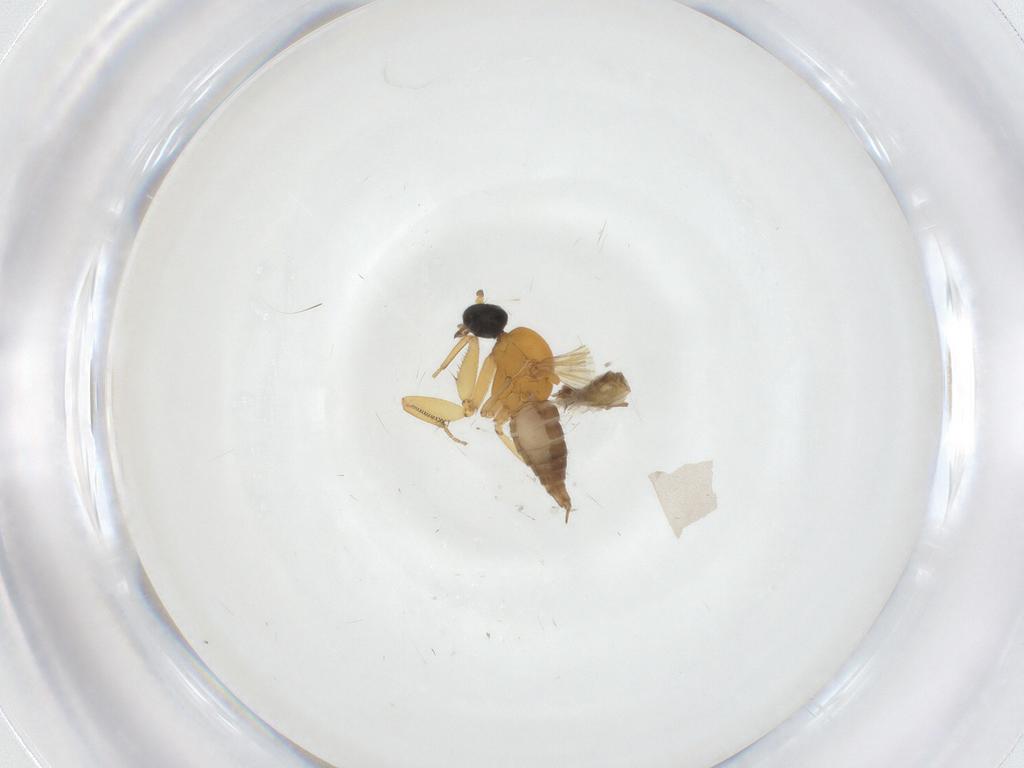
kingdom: Animalia
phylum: Arthropoda
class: Insecta
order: Diptera
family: Chironomidae
